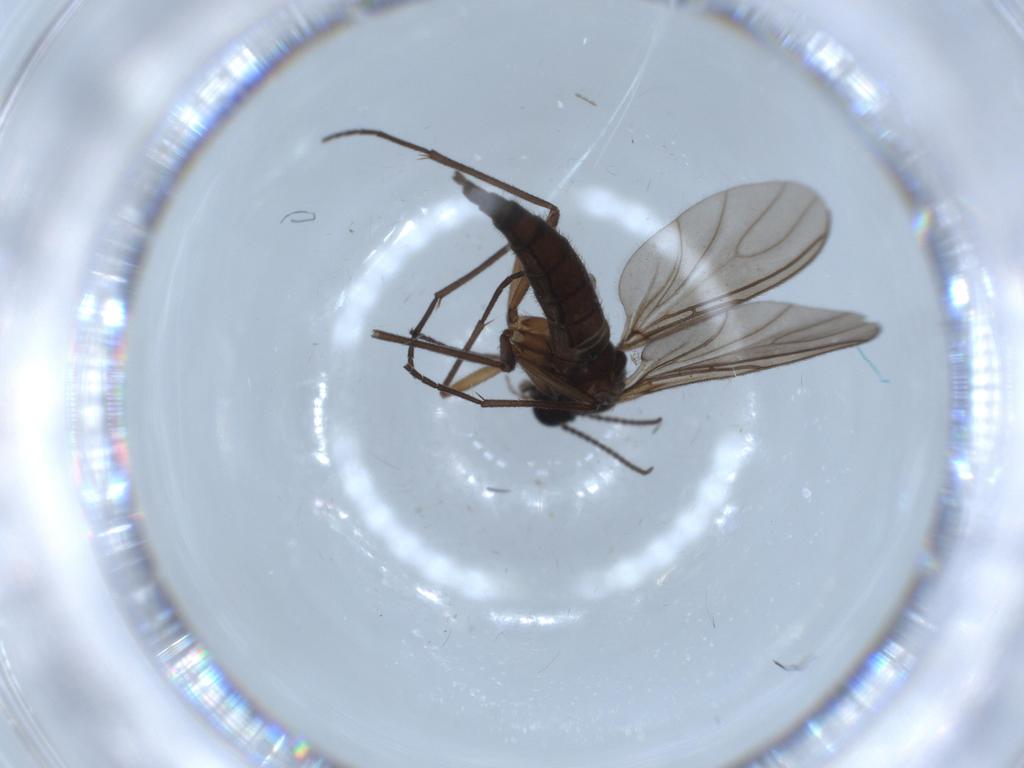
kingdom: Animalia
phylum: Arthropoda
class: Insecta
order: Diptera
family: Sciaridae
